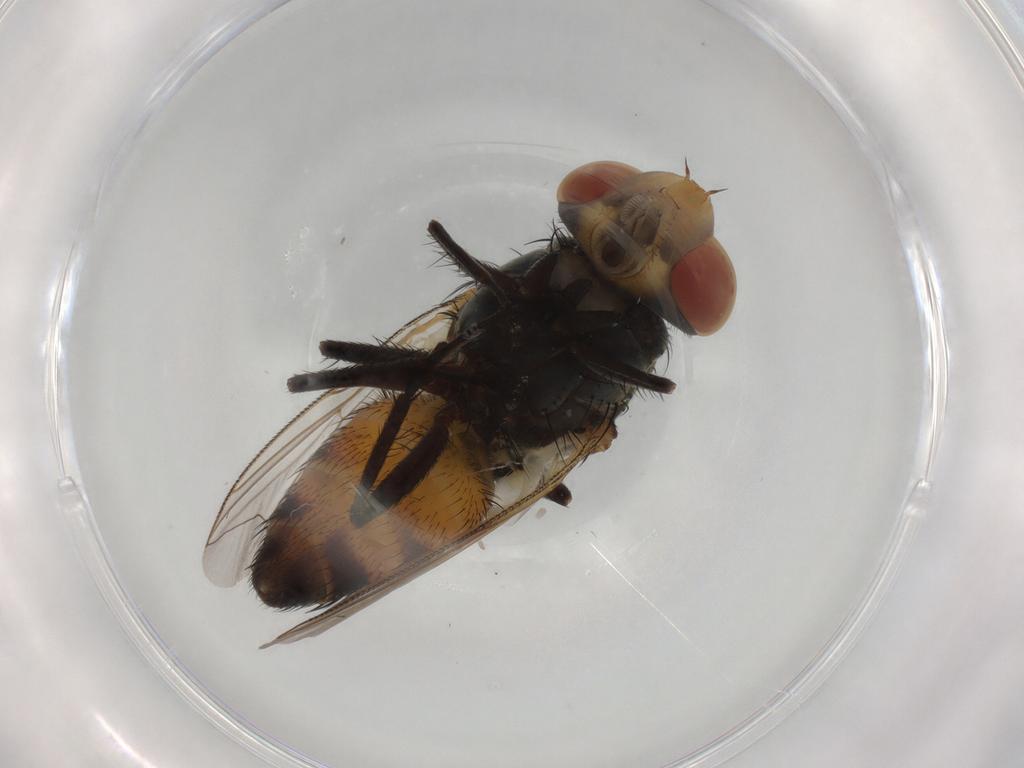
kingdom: Animalia
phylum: Arthropoda
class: Insecta
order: Diptera
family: Sarcophagidae
